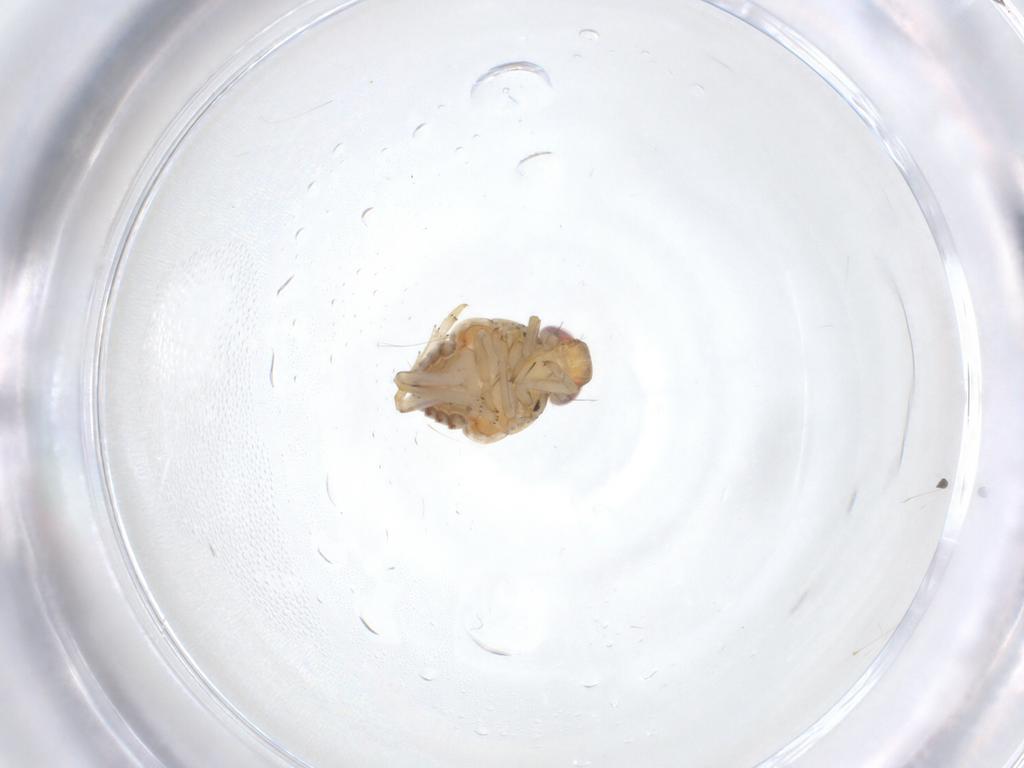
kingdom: Animalia
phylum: Arthropoda
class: Insecta
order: Hemiptera
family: Issidae
